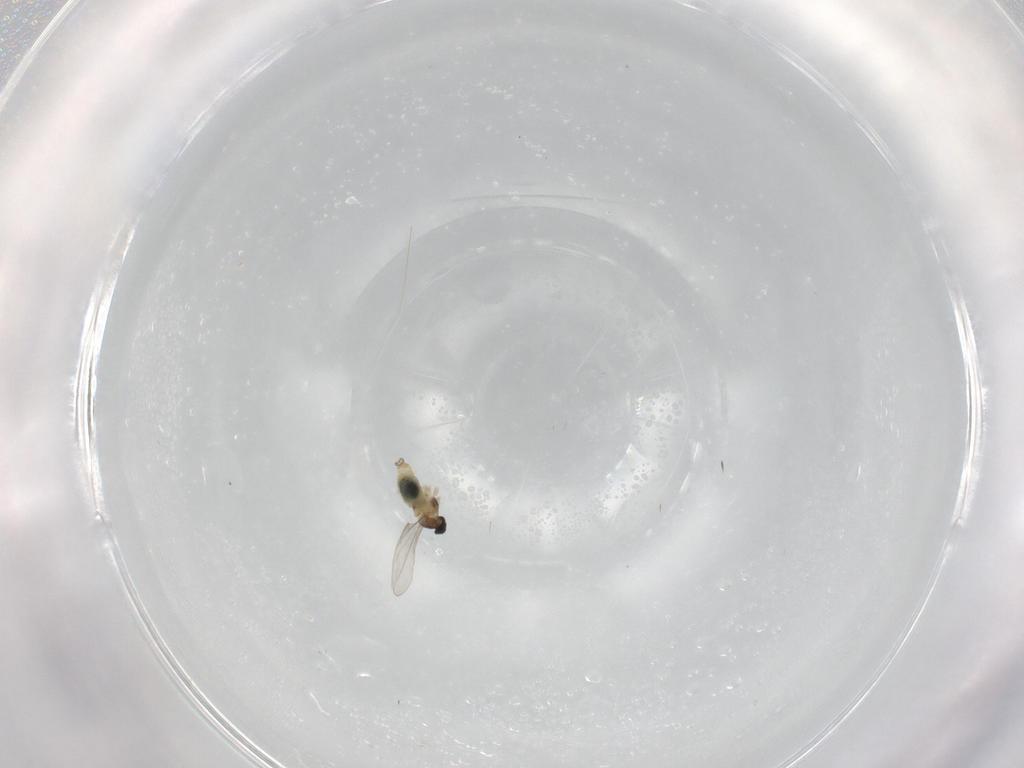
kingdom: Animalia
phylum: Arthropoda
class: Insecta
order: Diptera
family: Cecidomyiidae
